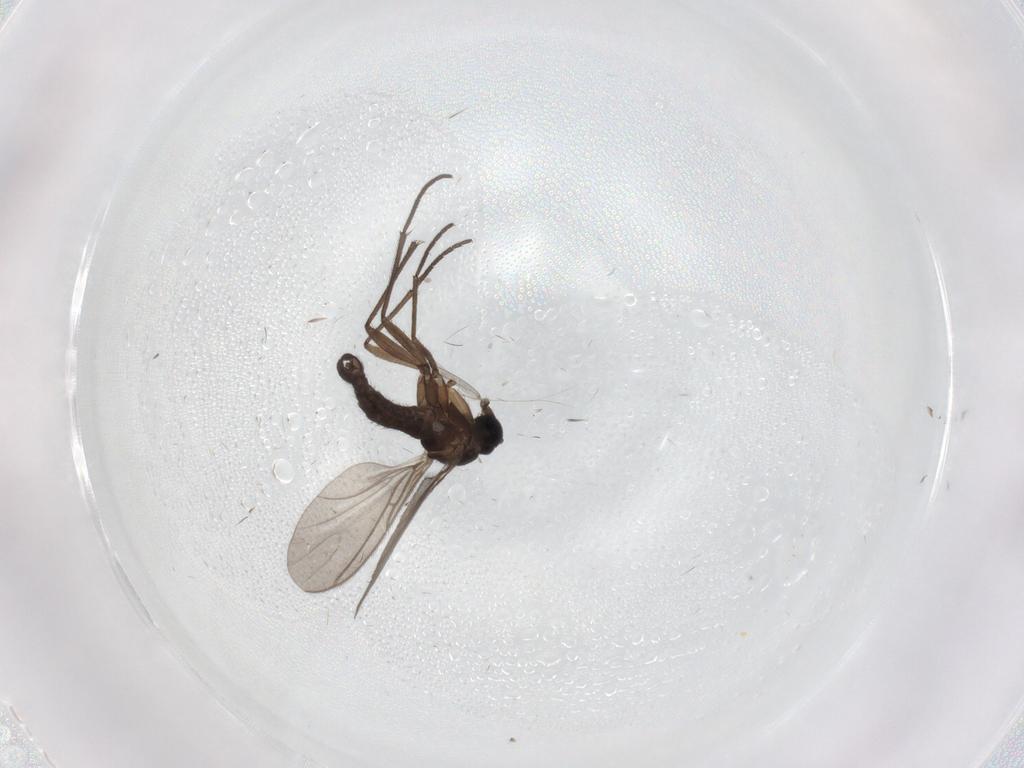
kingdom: Animalia
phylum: Arthropoda
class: Insecta
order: Diptera
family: Sciaridae
